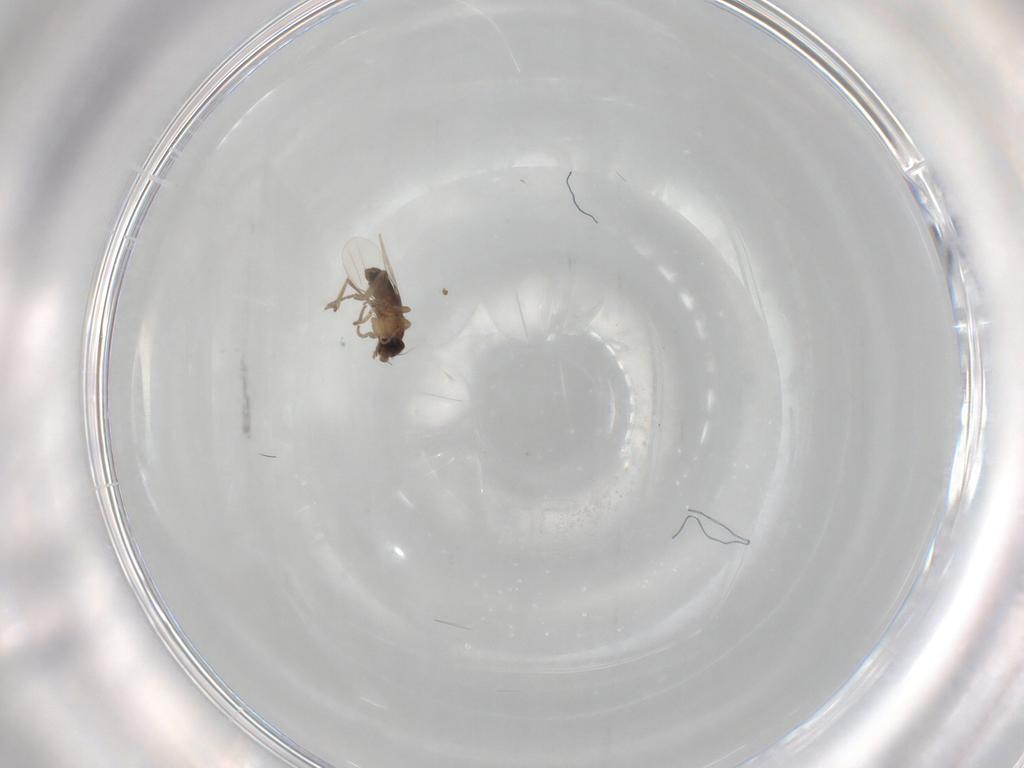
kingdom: Animalia
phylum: Arthropoda
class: Insecta
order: Diptera
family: Phoridae
